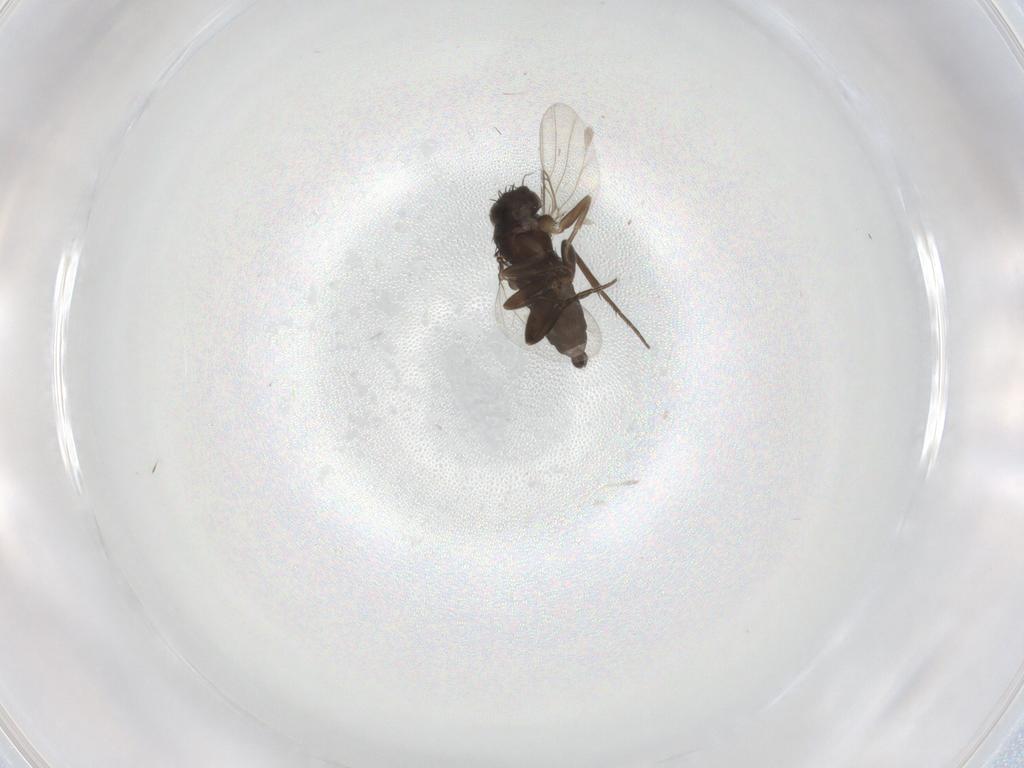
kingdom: Animalia
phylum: Arthropoda
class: Insecta
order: Diptera
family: Phoridae
